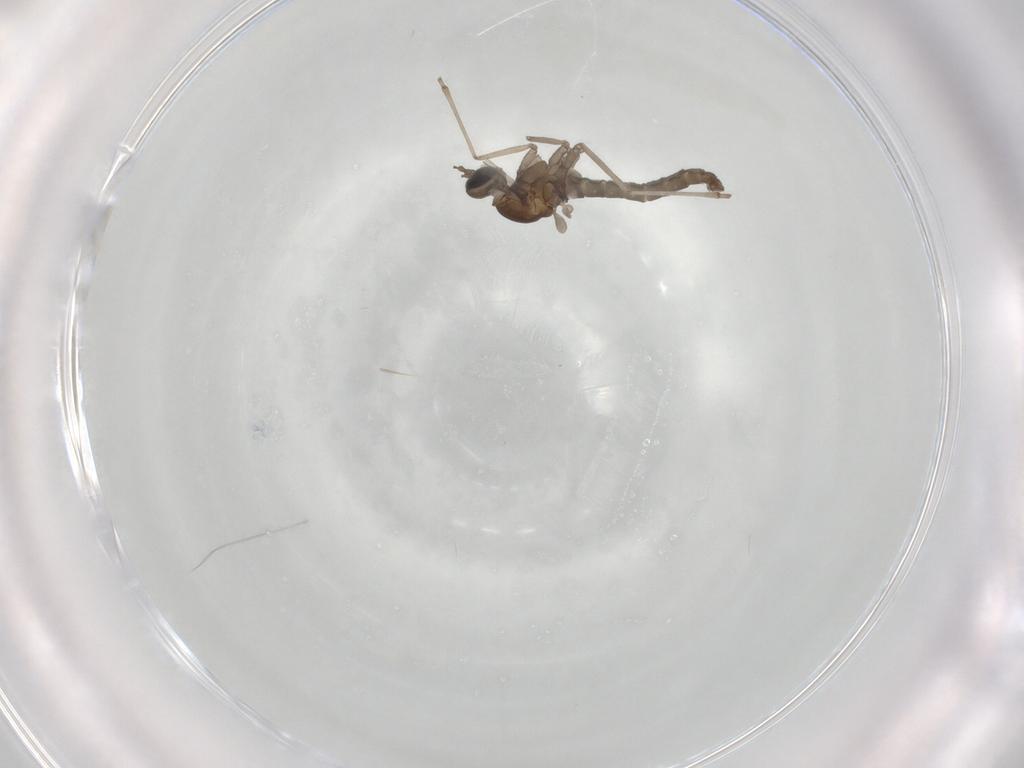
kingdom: Animalia
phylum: Arthropoda
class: Insecta
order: Diptera
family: Cecidomyiidae
